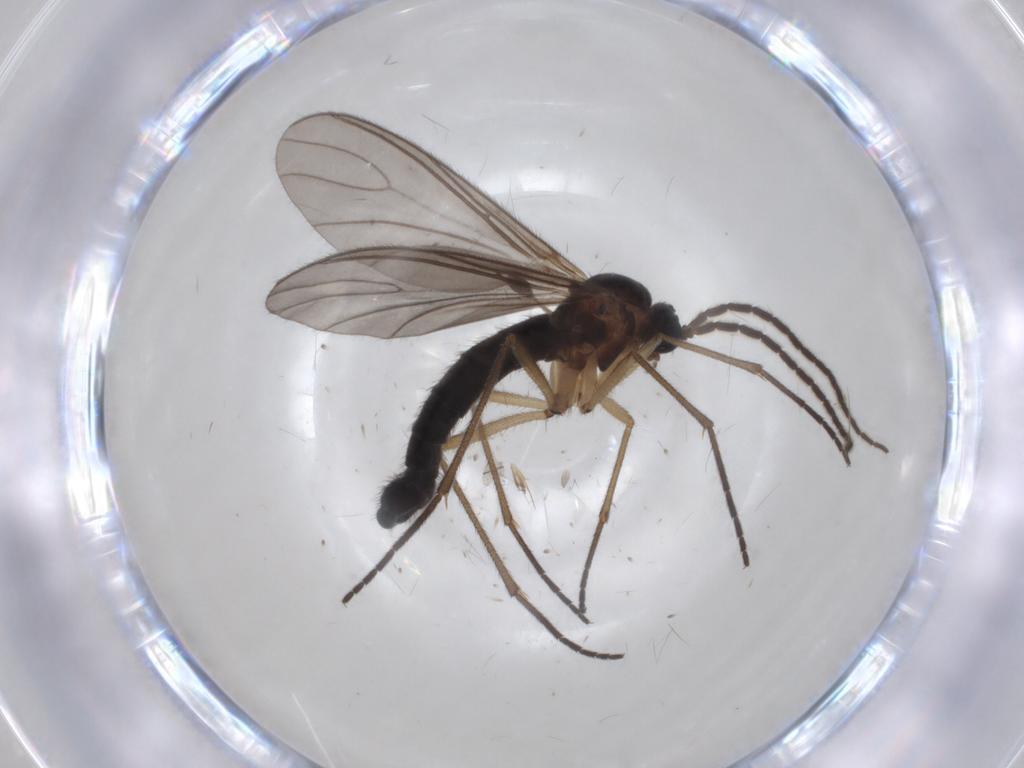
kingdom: Animalia
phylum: Arthropoda
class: Insecta
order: Diptera
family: Sciaridae
